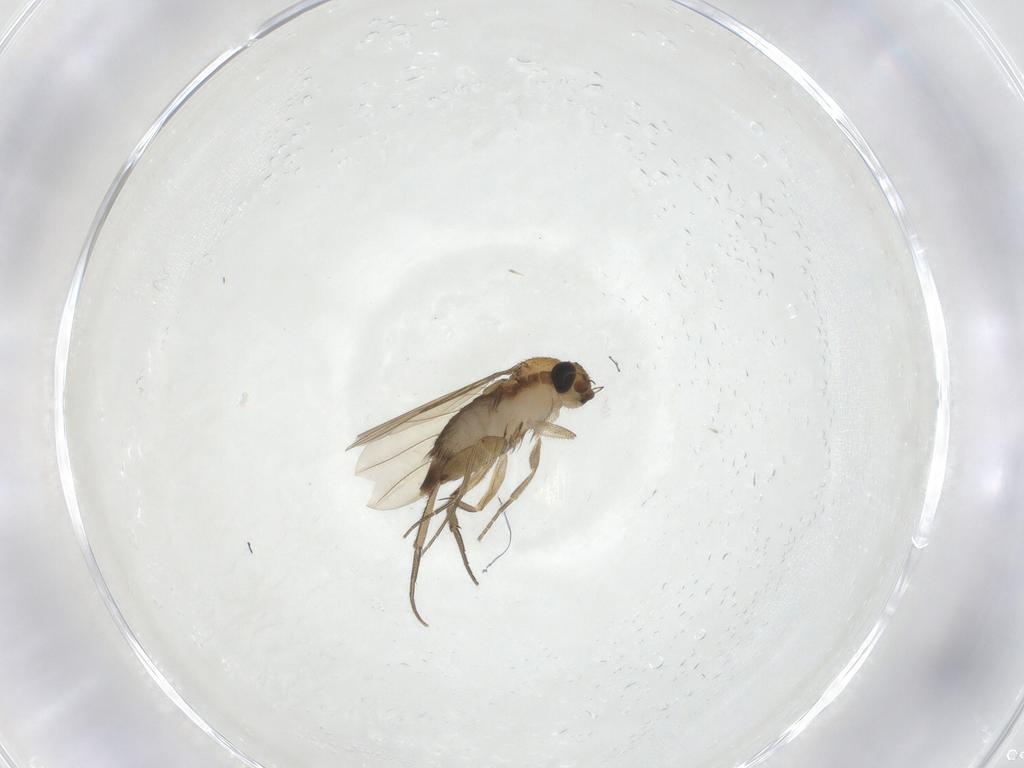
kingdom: Animalia
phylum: Arthropoda
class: Insecta
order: Diptera
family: Phoridae
